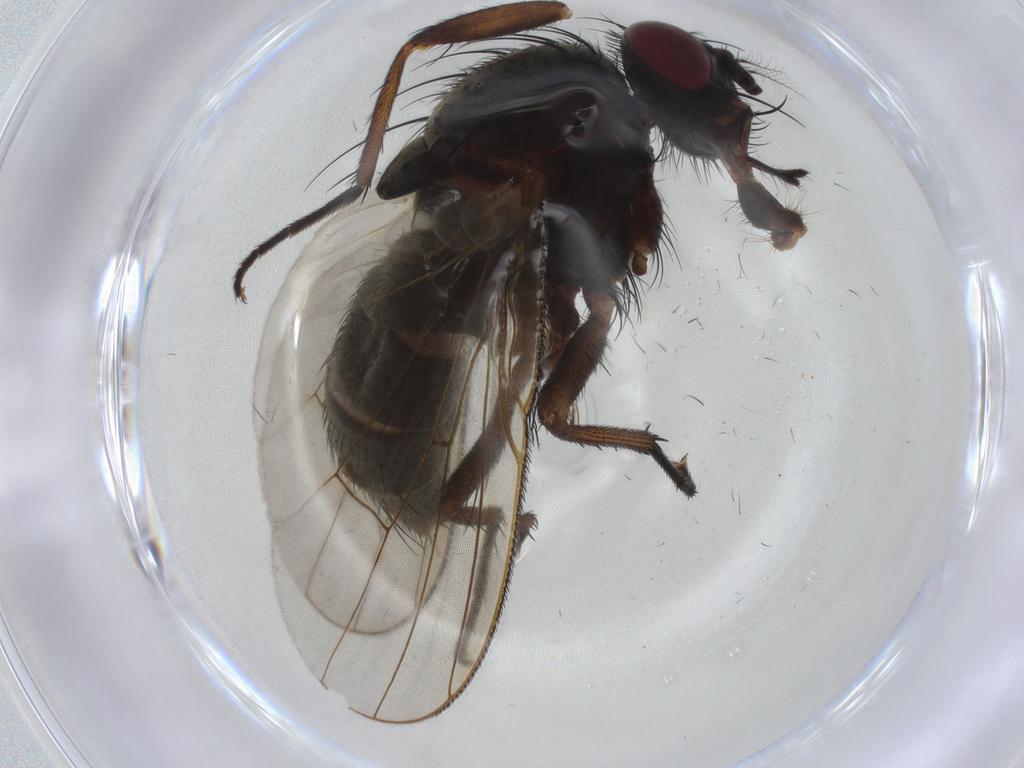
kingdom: Animalia
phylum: Arthropoda
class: Insecta
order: Diptera
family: Muscidae
